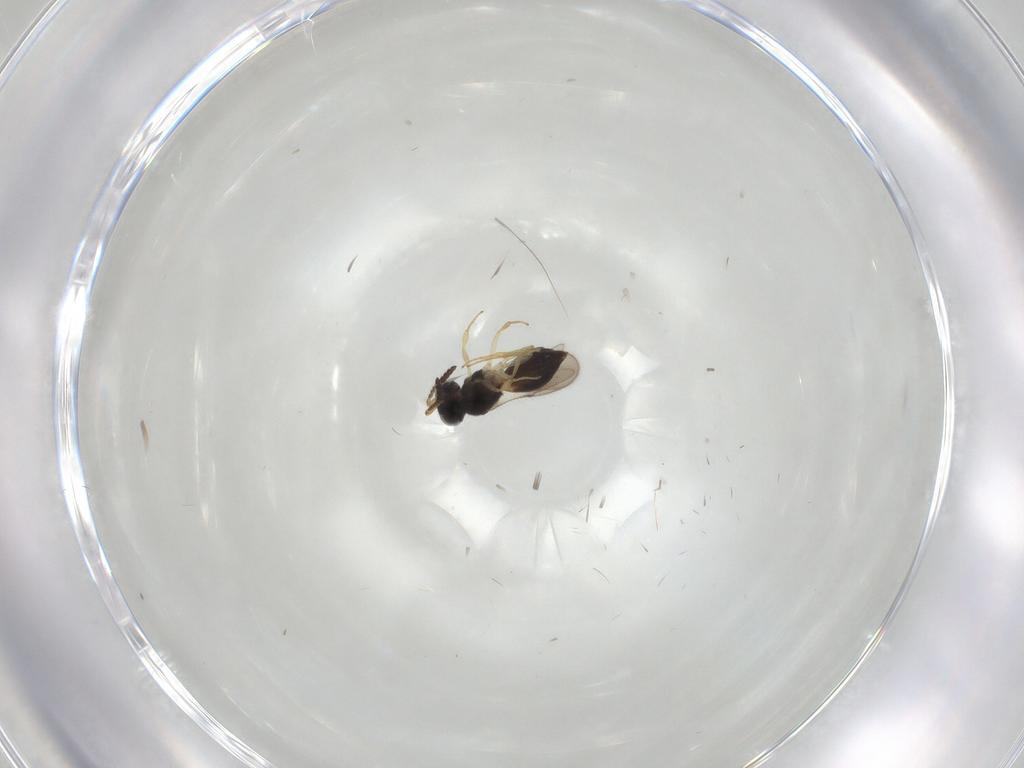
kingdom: Animalia
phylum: Arthropoda
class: Insecta
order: Hymenoptera
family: Scelionidae
